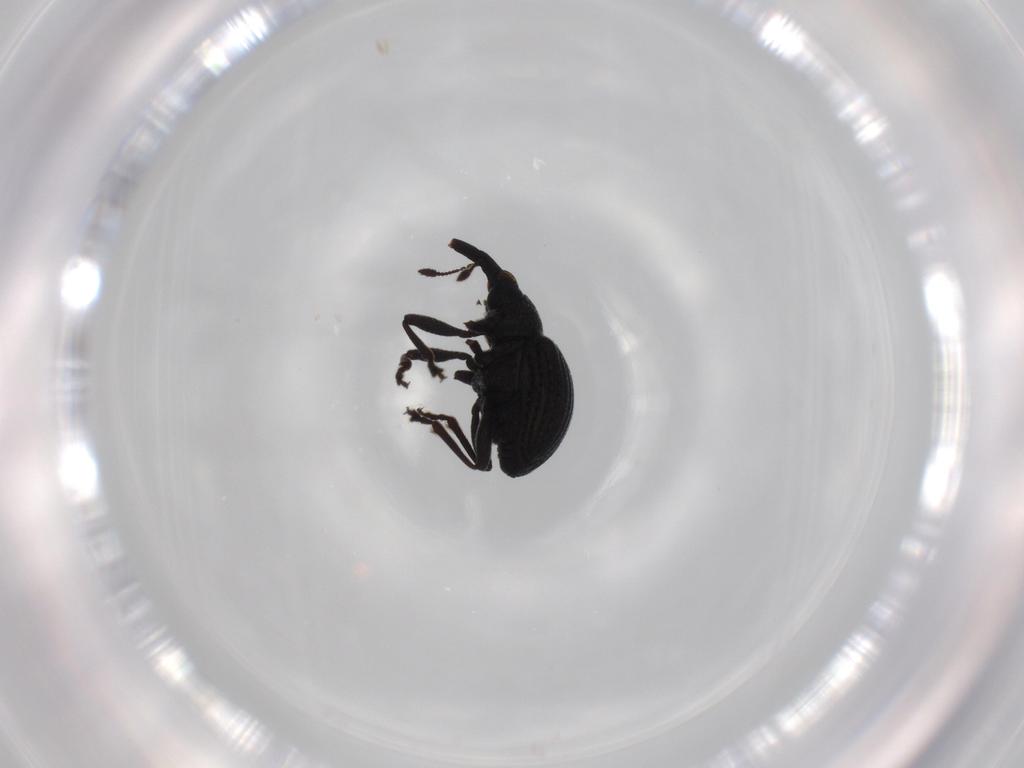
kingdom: Animalia
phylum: Arthropoda
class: Insecta
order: Coleoptera
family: Brentidae
